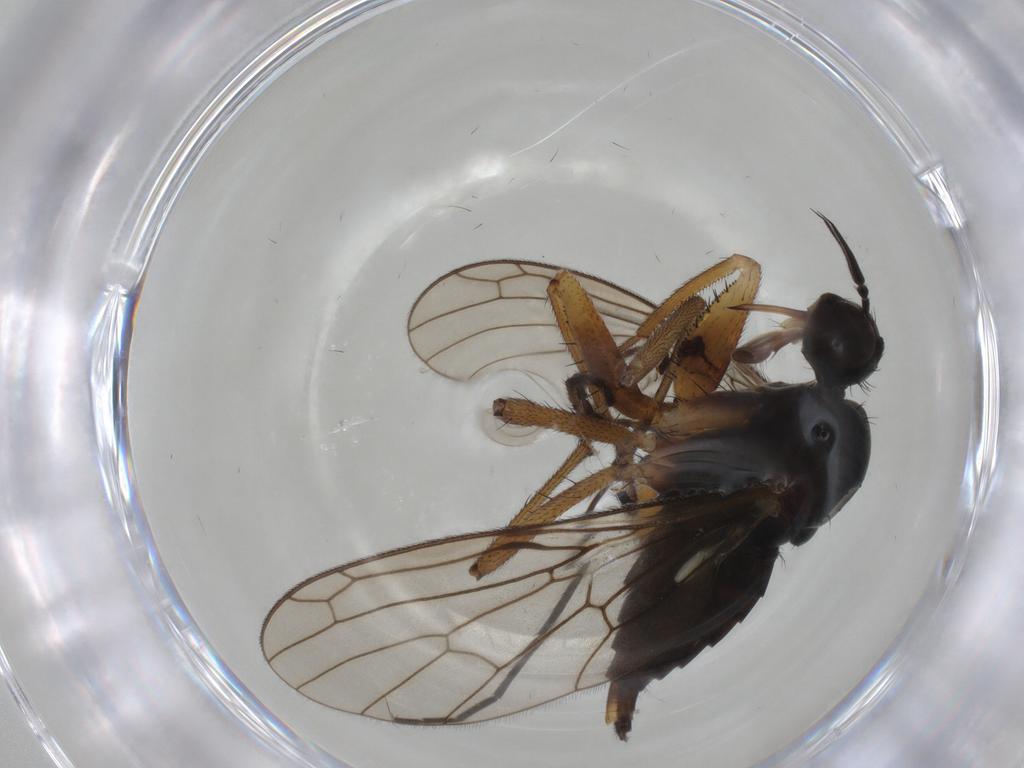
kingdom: Animalia
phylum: Arthropoda
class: Insecta
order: Diptera
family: Empididae
